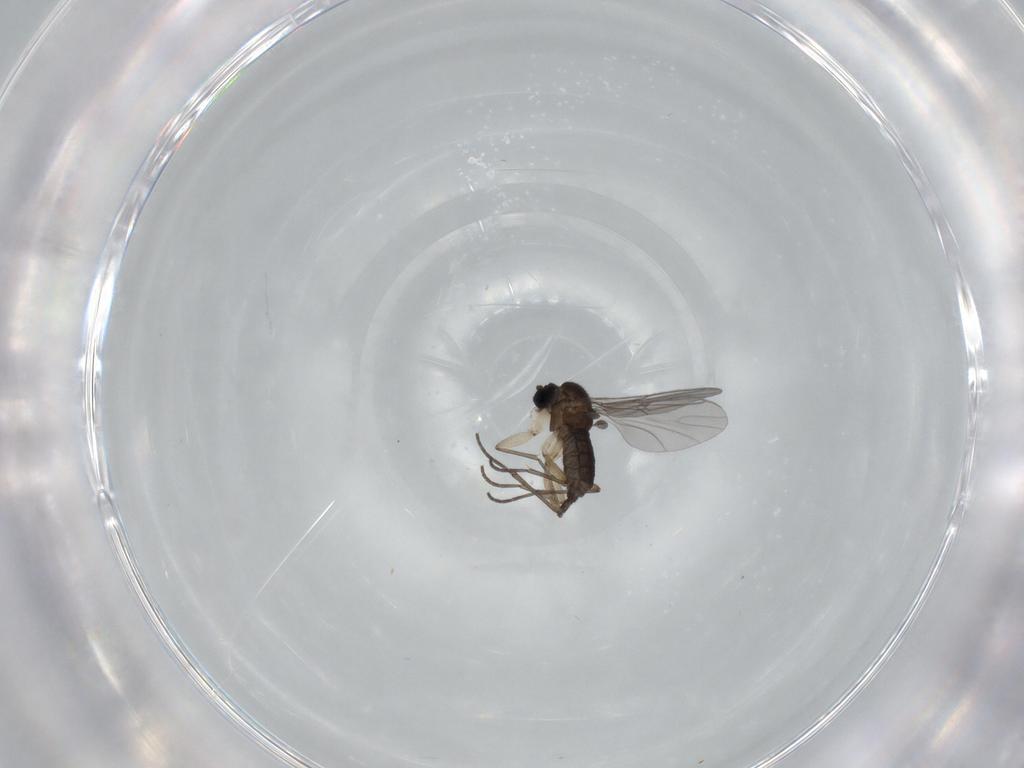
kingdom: Animalia
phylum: Arthropoda
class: Insecta
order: Diptera
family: Sciaridae
